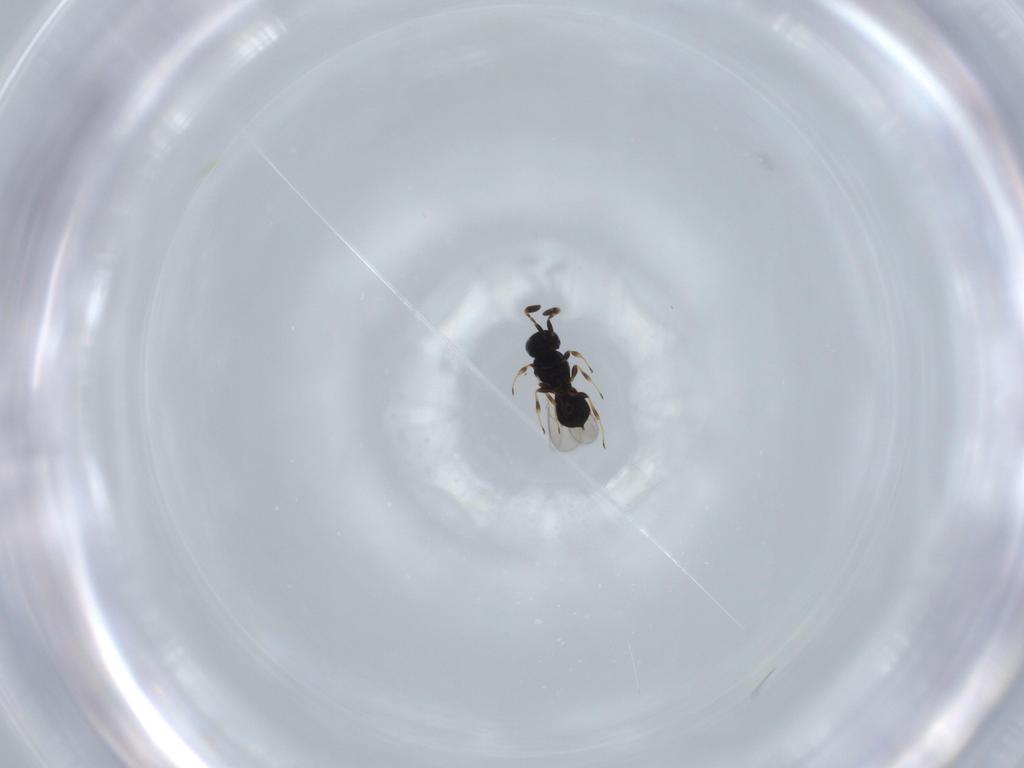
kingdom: Animalia
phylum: Arthropoda
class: Insecta
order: Hymenoptera
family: Scelionidae
